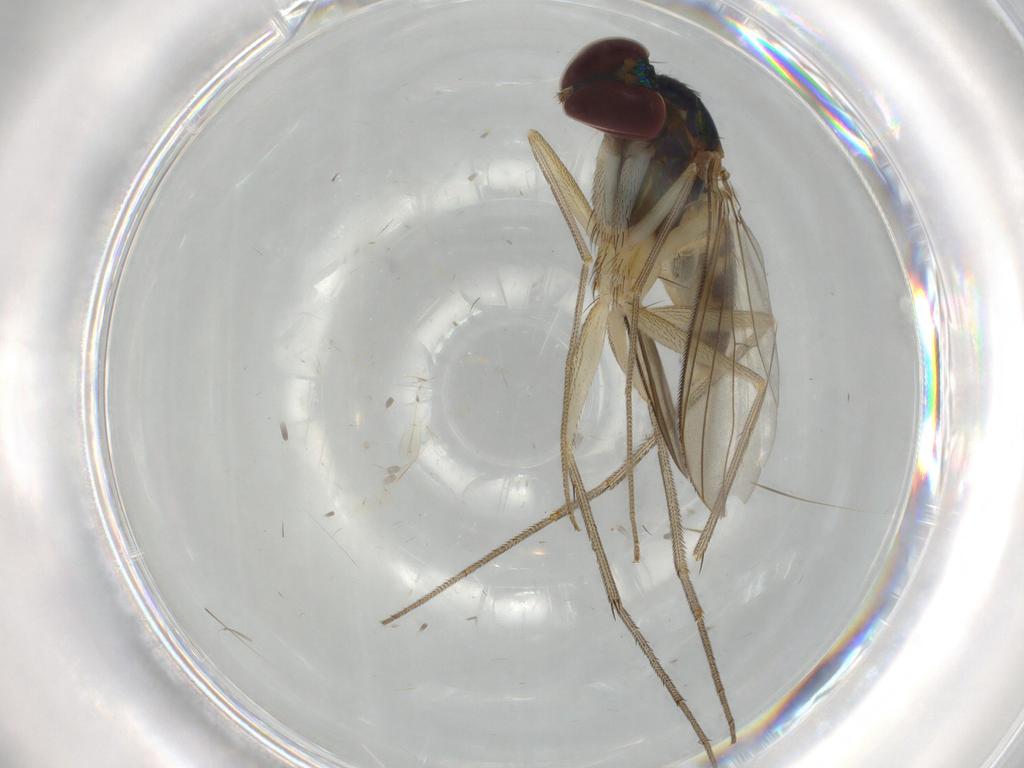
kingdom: Animalia
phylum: Arthropoda
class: Insecta
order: Diptera
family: Dolichopodidae
